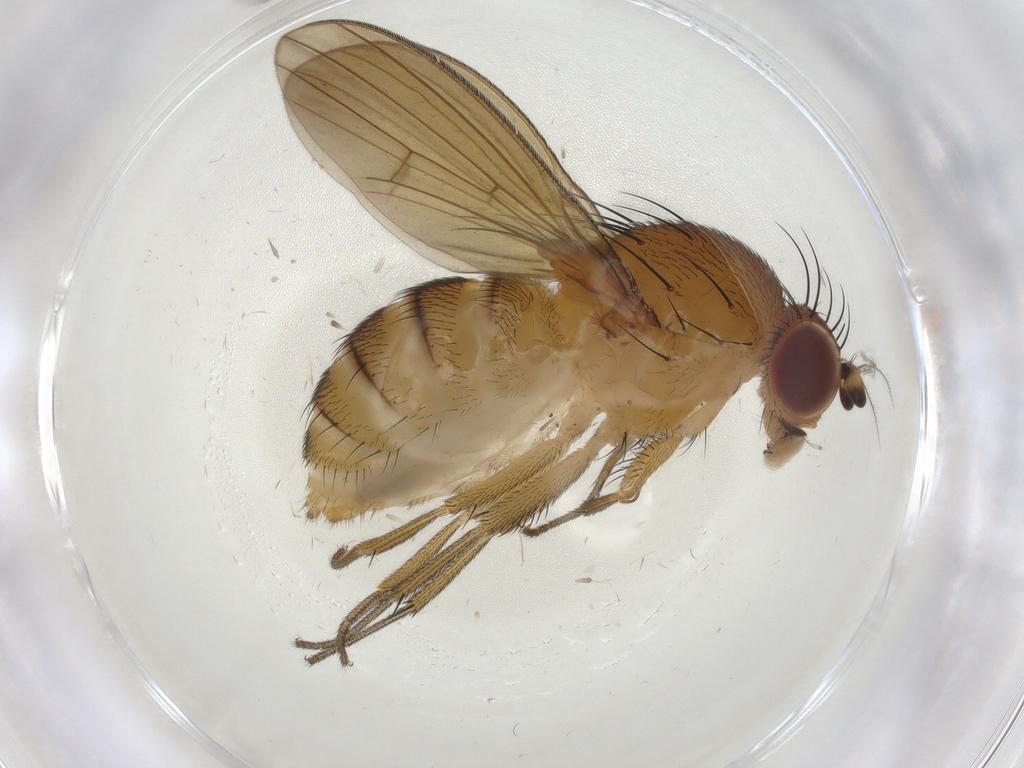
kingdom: Animalia
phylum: Arthropoda
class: Insecta
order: Diptera
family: Psychodidae
